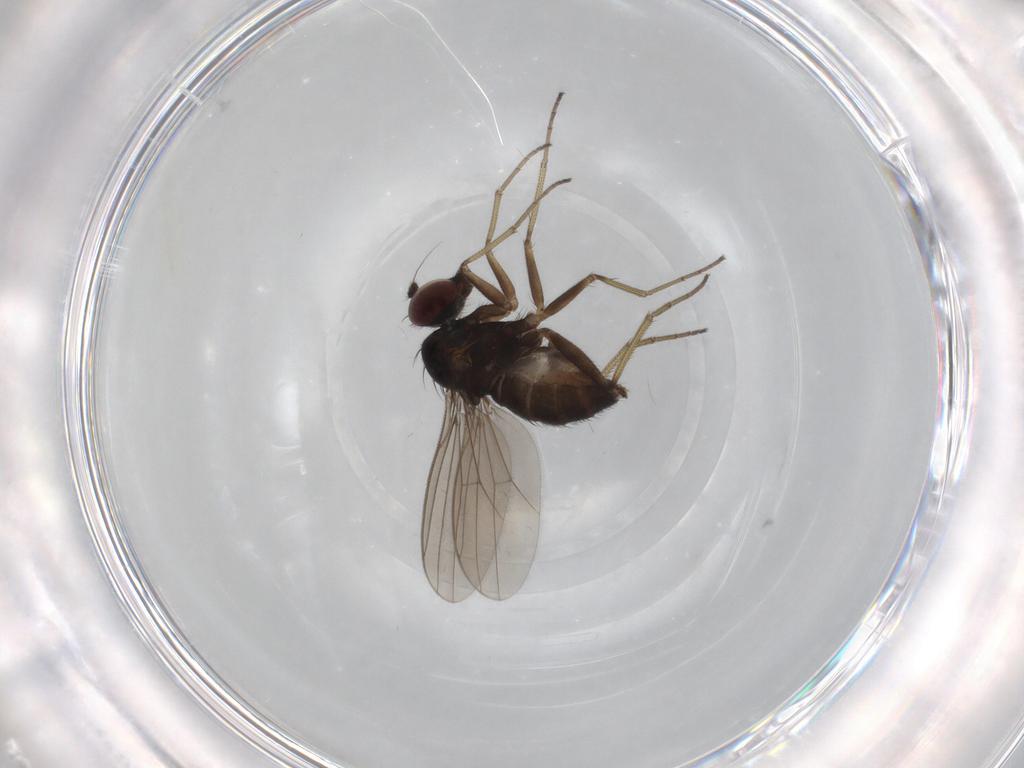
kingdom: Animalia
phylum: Arthropoda
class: Insecta
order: Diptera
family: Dolichopodidae
